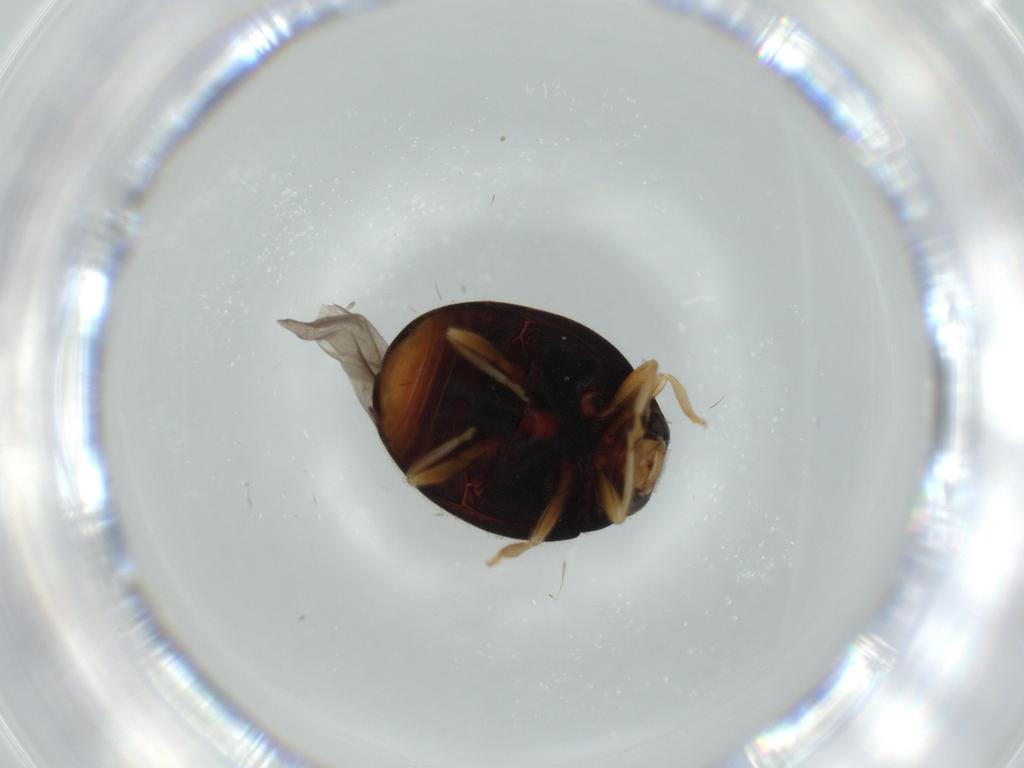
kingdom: Animalia
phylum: Arthropoda
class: Insecta
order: Coleoptera
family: Coccinellidae
